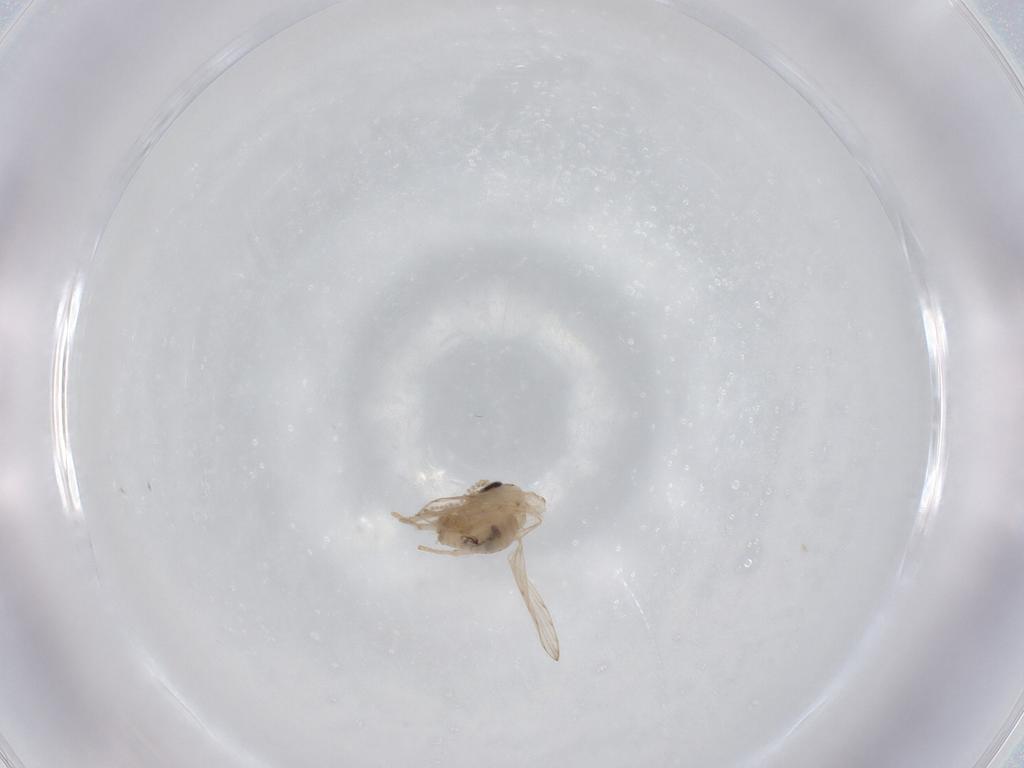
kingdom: Animalia
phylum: Arthropoda
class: Insecta
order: Diptera
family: Psychodidae
